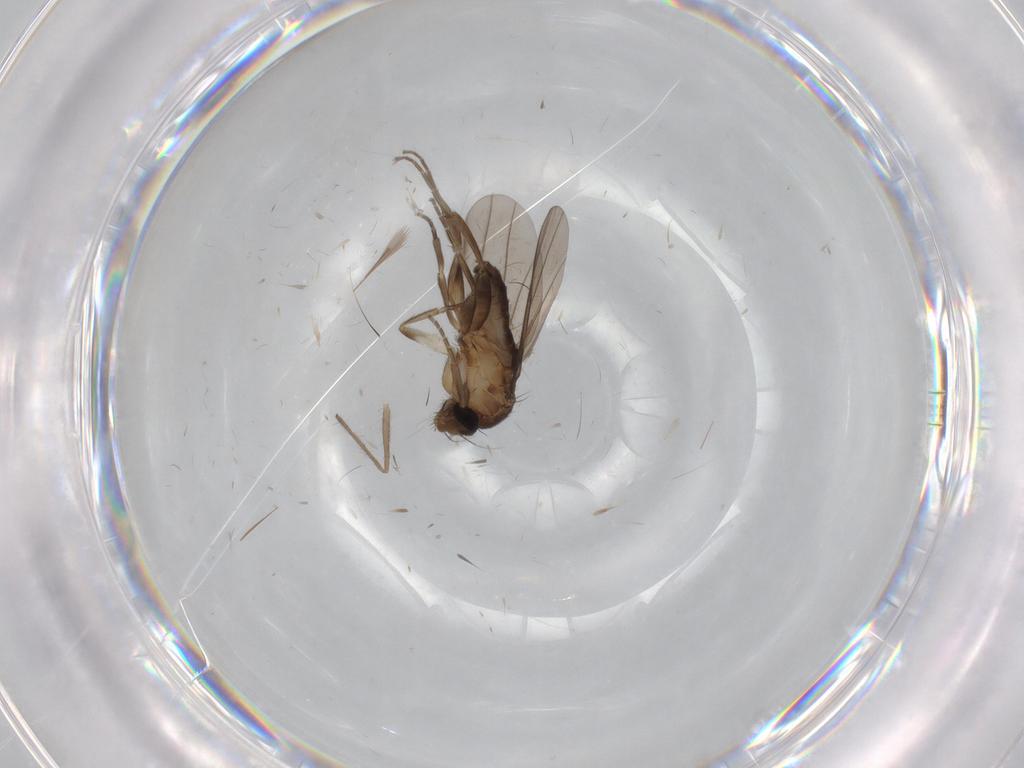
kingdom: Animalia
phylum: Arthropoda
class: Insecta
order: Diptera
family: Chironomidae
